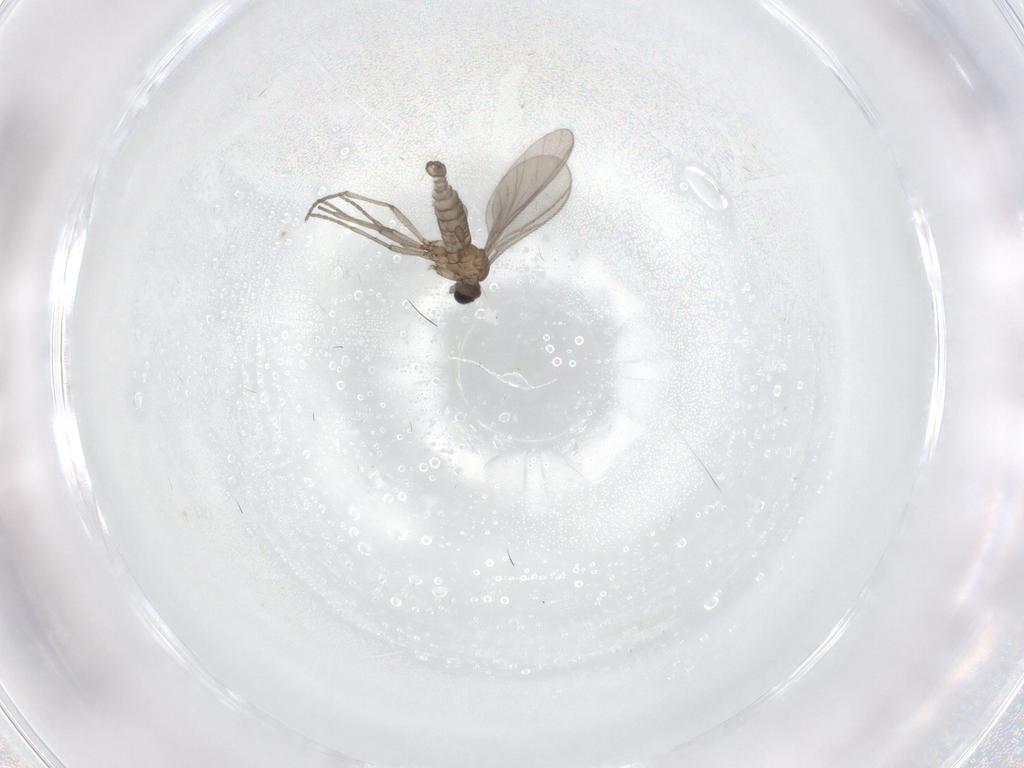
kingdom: Animalia
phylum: Arthropoda
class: Insecta
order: Diptera
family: Sciaridae
